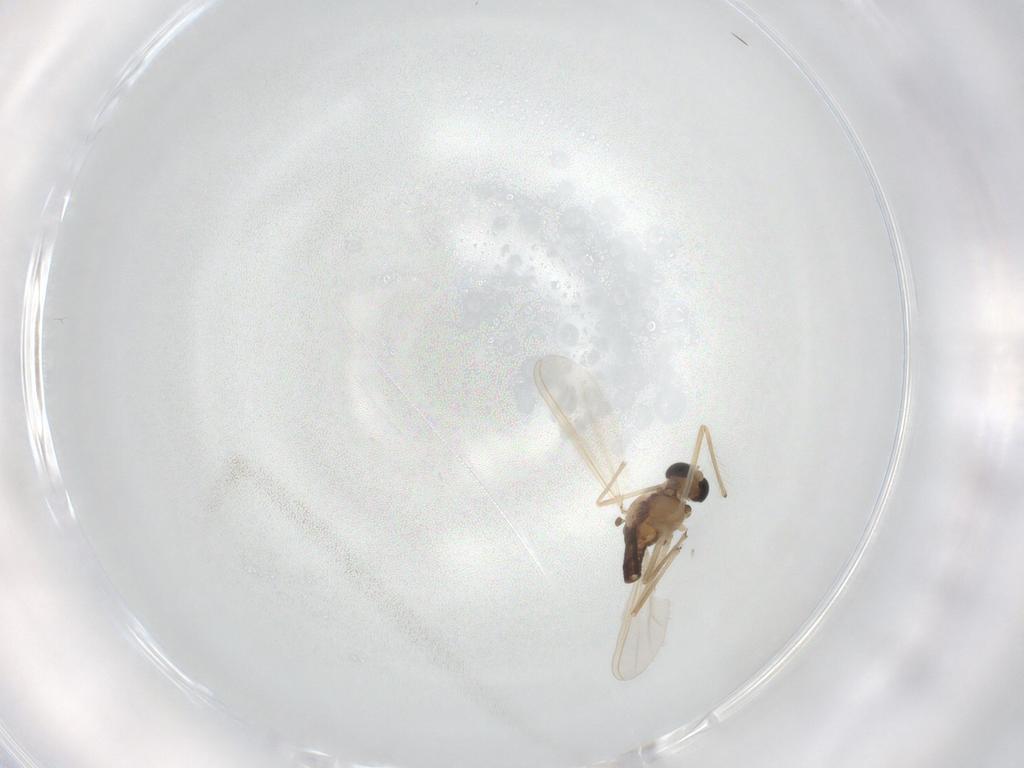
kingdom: Animalia
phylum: Arthropoda
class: Insecta
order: Diptera
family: Chironomidae
